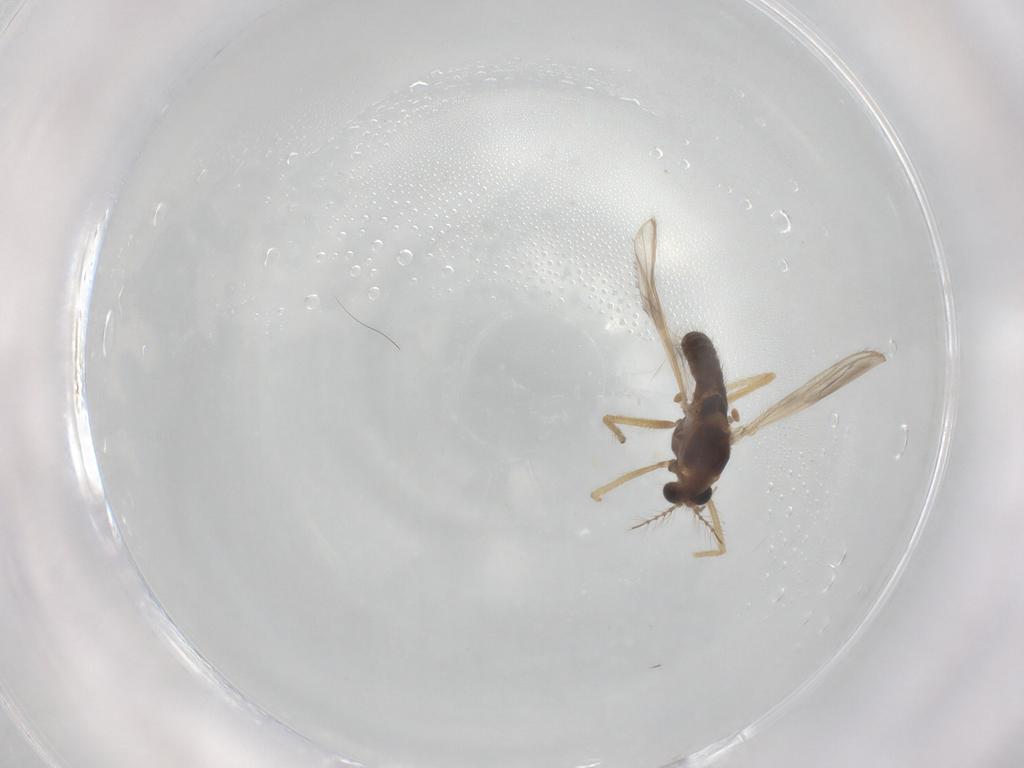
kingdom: Animalia
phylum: Arthropoda
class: Insecta
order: Diptera
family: Chironomidae
